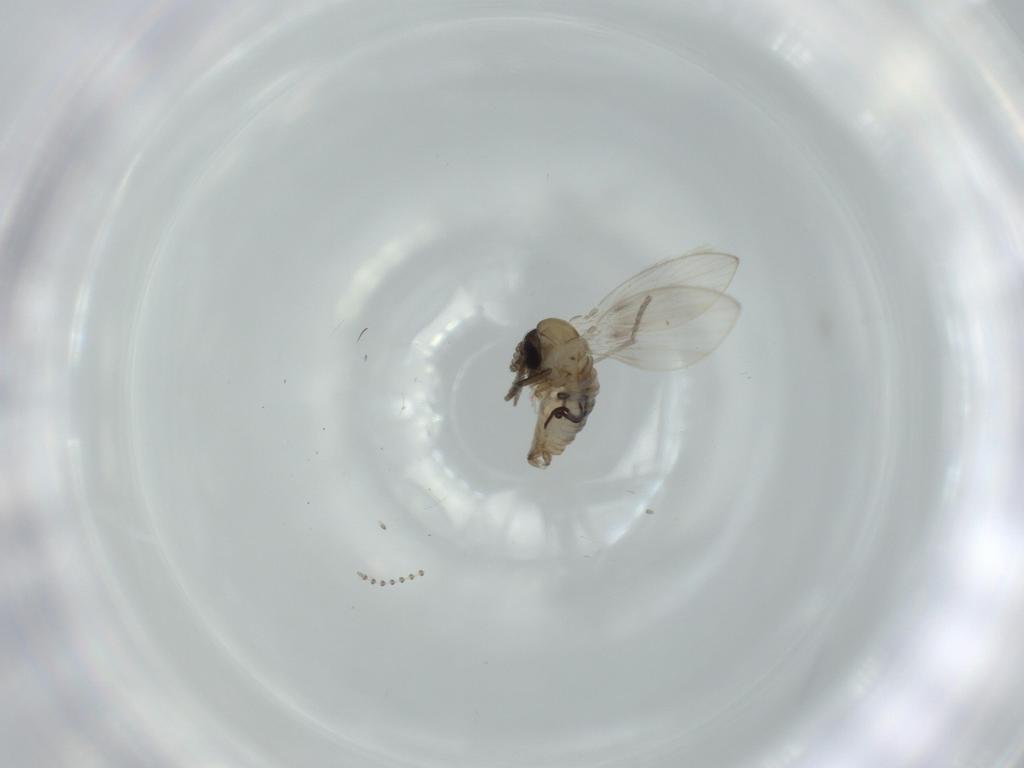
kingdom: Animalia
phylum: Arthropoda
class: Insecta
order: Diptera
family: Psychodidae
